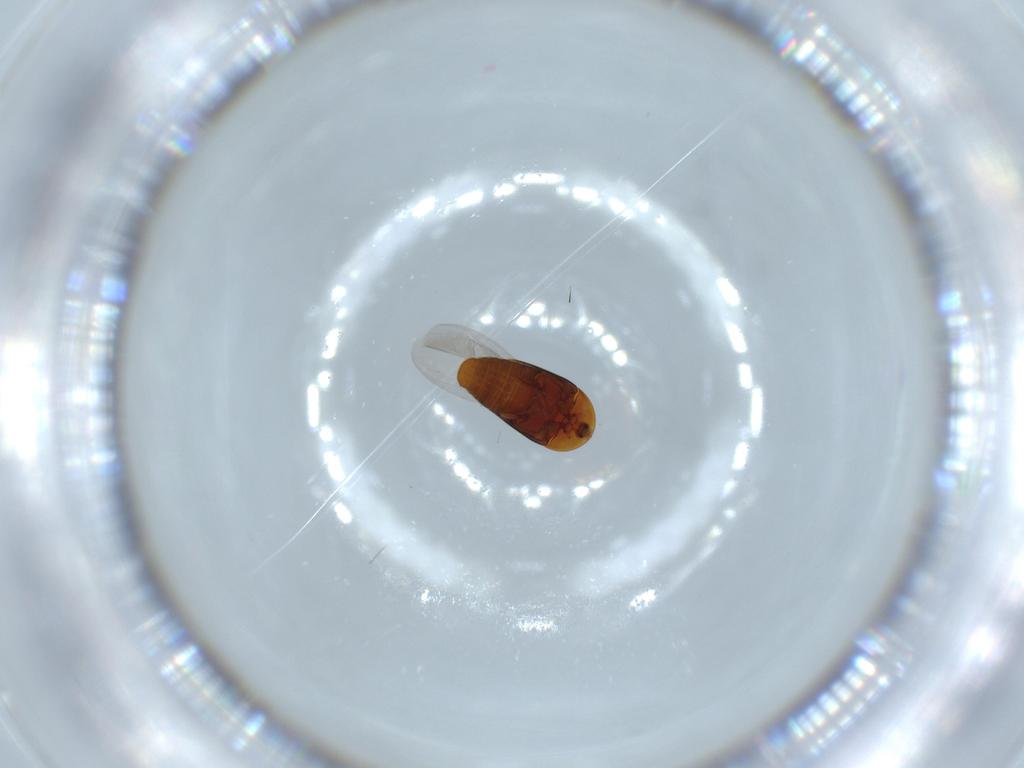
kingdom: Animalia
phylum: Arthropoda
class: Insecta
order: Coleoptera
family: Corylophidae
